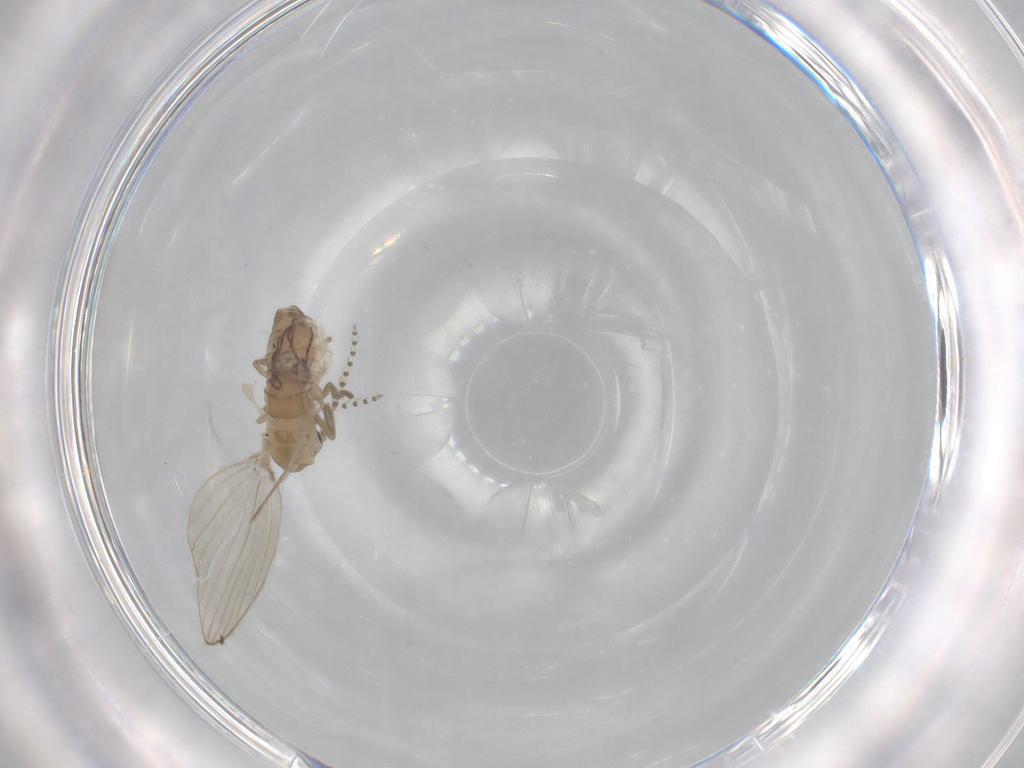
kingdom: Animalia
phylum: Arthropoda
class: Insecta
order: Diptera
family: Psychodidae
